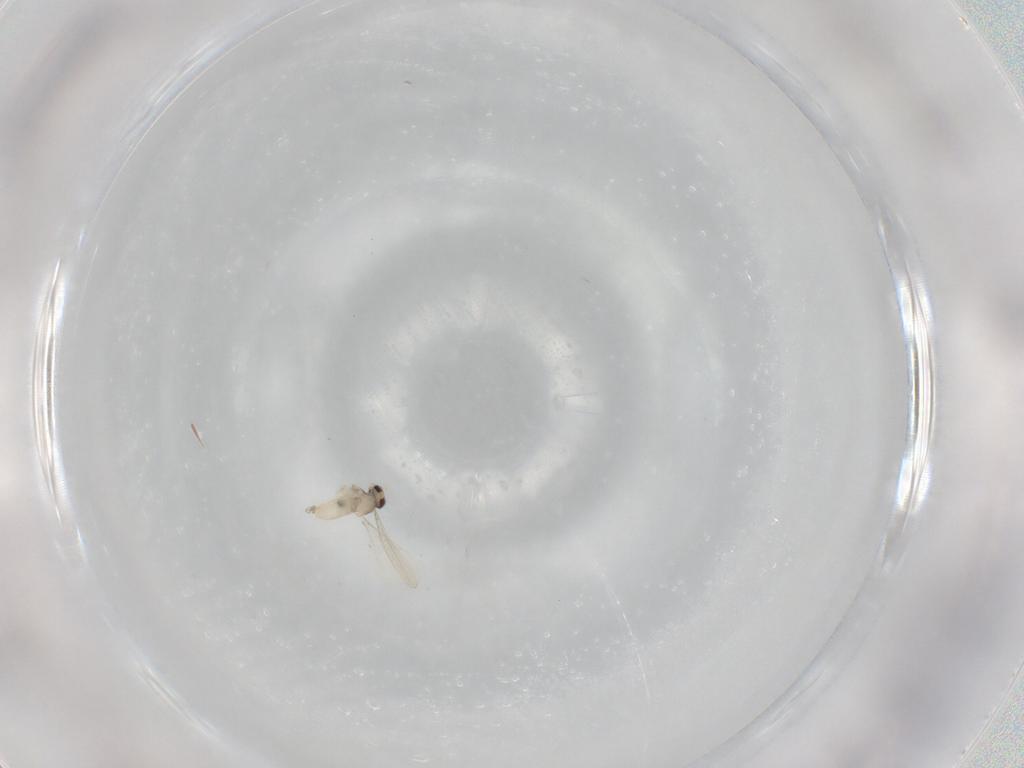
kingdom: Animalia
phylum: Arthropoda
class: Insecta
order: Diptera
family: Cecidomyiidae
